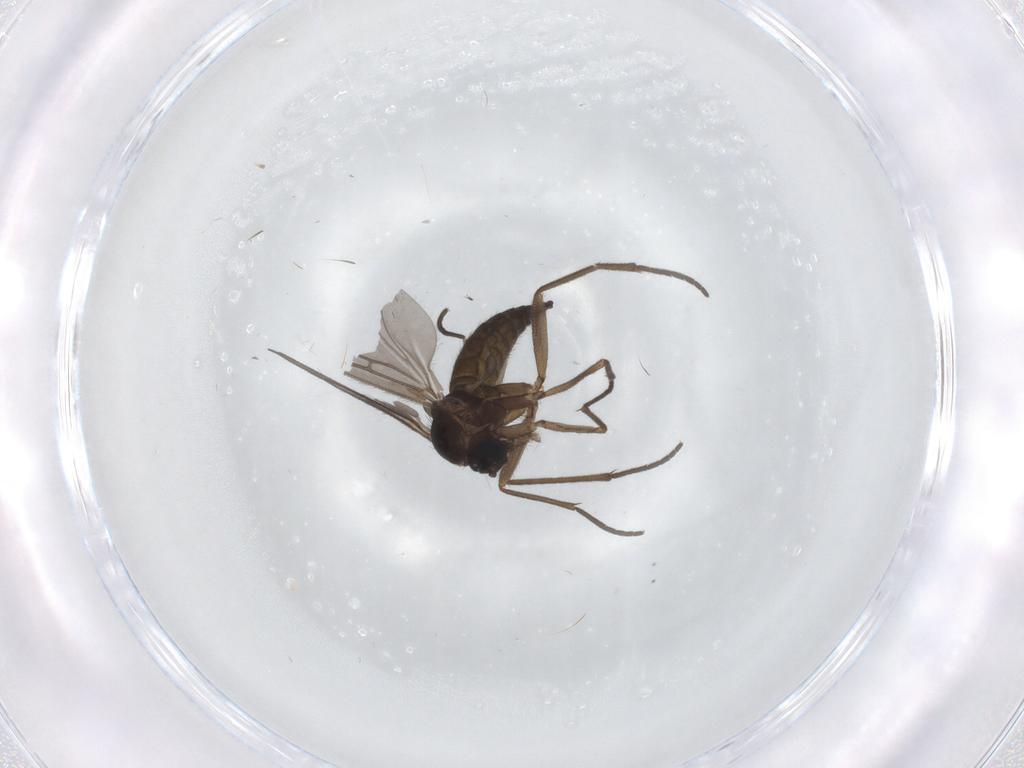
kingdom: Animalia
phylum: Arthropoda
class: Insecta
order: Diptera
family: Sciaridae
